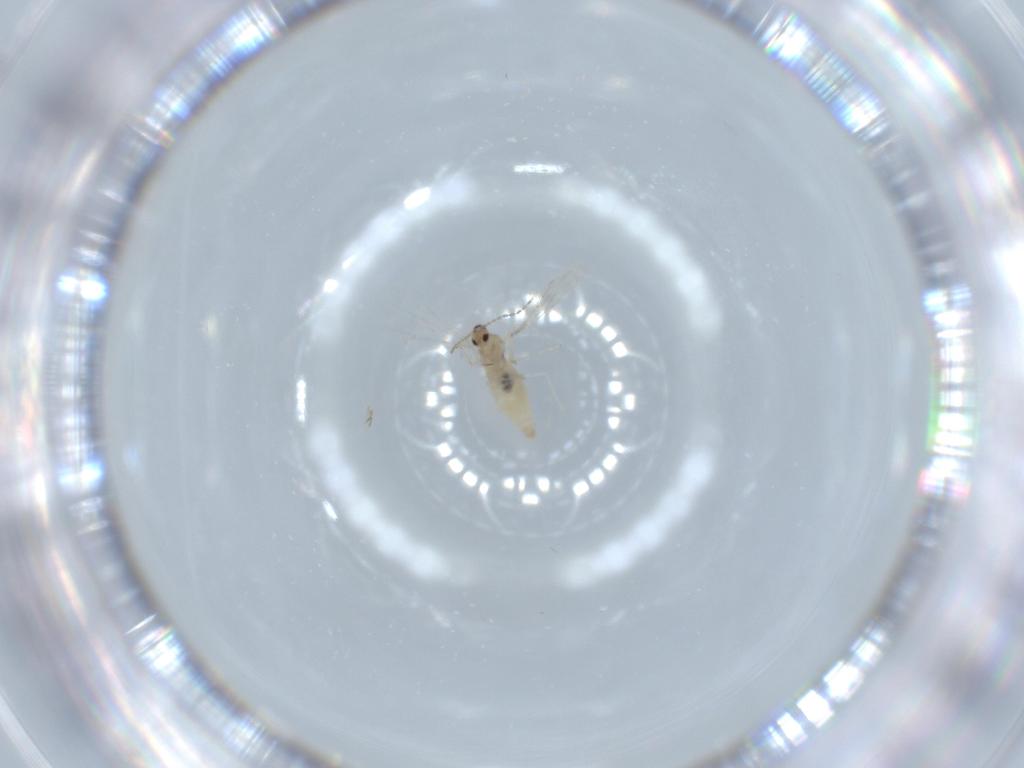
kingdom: Animalia
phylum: Arthropoda
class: Insecta
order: Diptera
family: Cecidomyiidae
